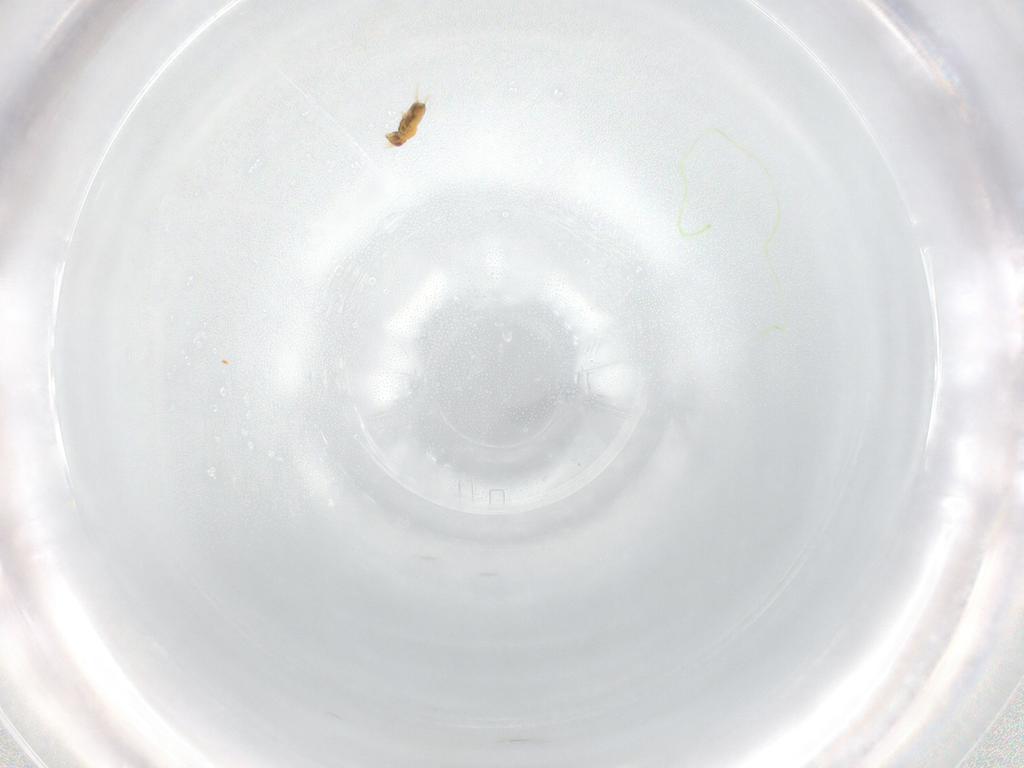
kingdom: Animalia
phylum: Arthropoda
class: Insecta
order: Hymenoptera
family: Trichogrammatidae
